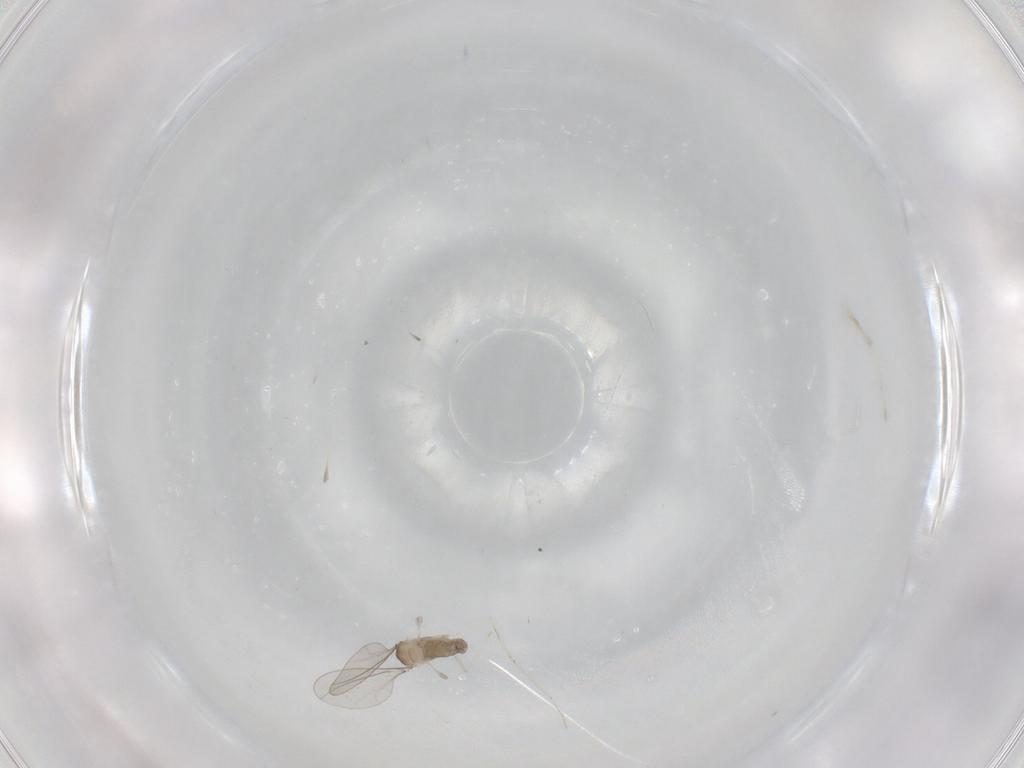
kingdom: Animalia
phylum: Arthropoda
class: Insecta
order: Diptera
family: Cecidomyiidae
